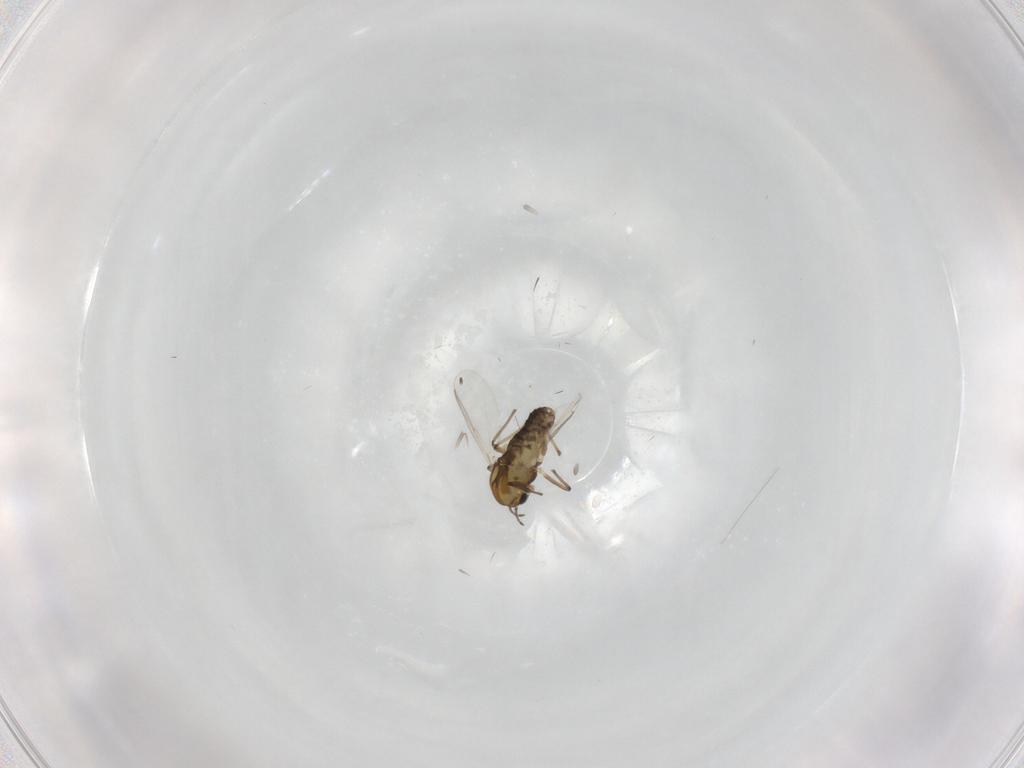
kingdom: Animalia
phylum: Arthropoda
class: Insecta
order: Diptera
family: Chironomidae
